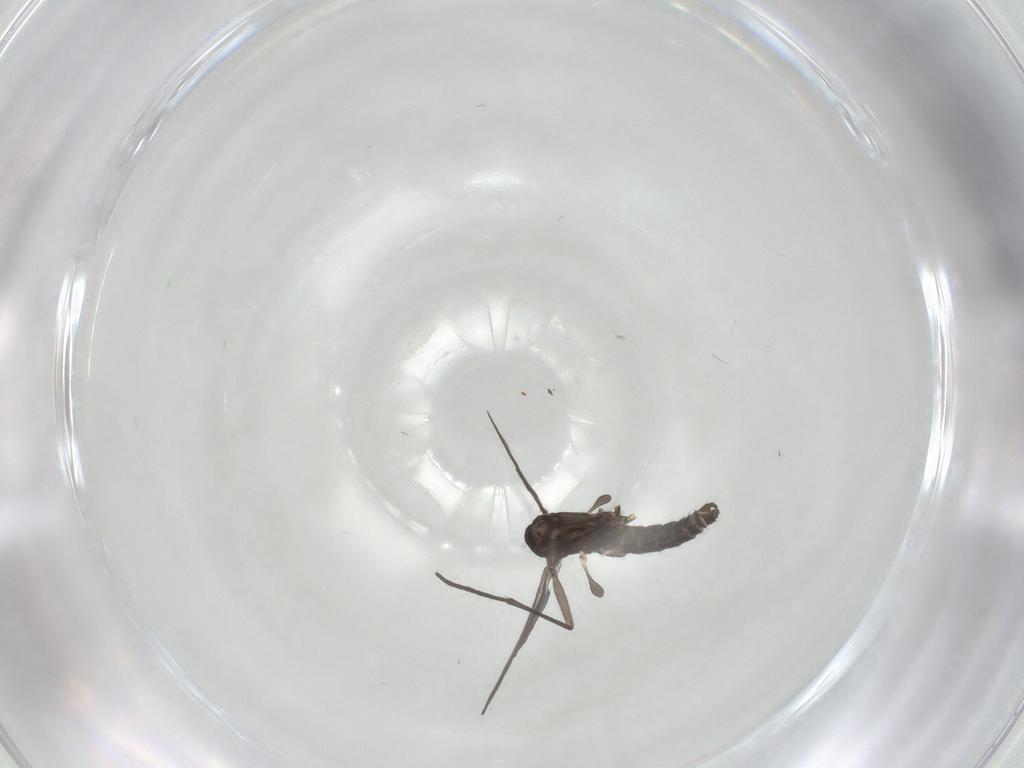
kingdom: Animalia
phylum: Arthropoda
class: Insecta
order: Diptera
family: Sciaridae
